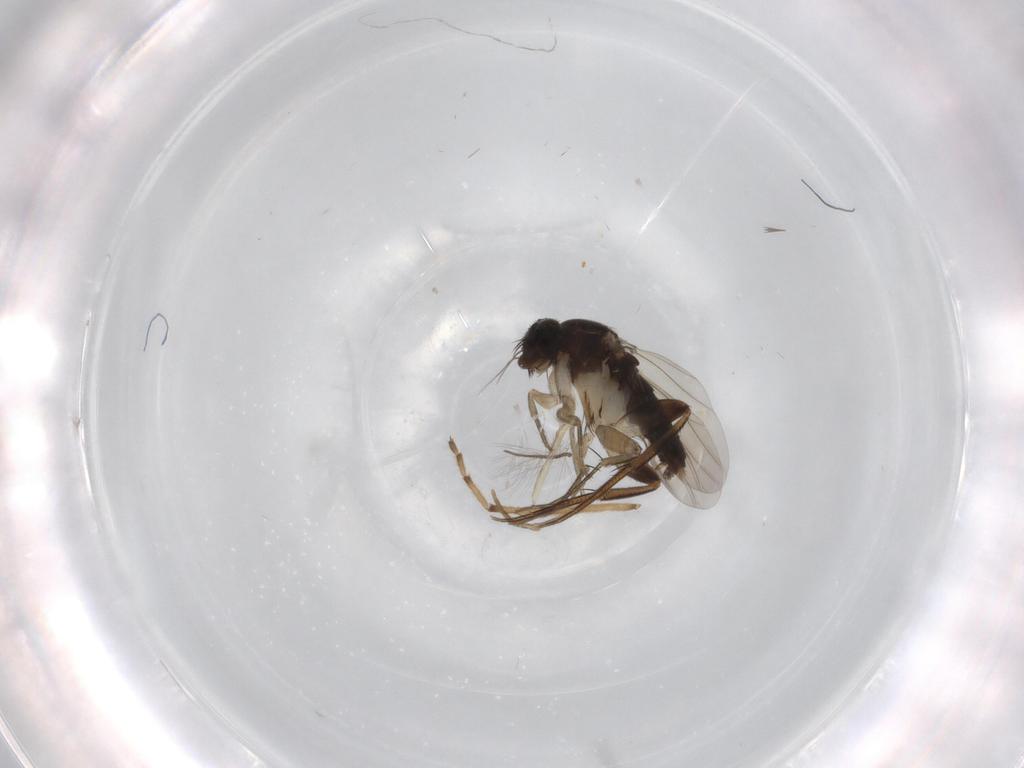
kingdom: Animalia
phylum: Arthropoda
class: Insecta
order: Diptera
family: Phoridae
